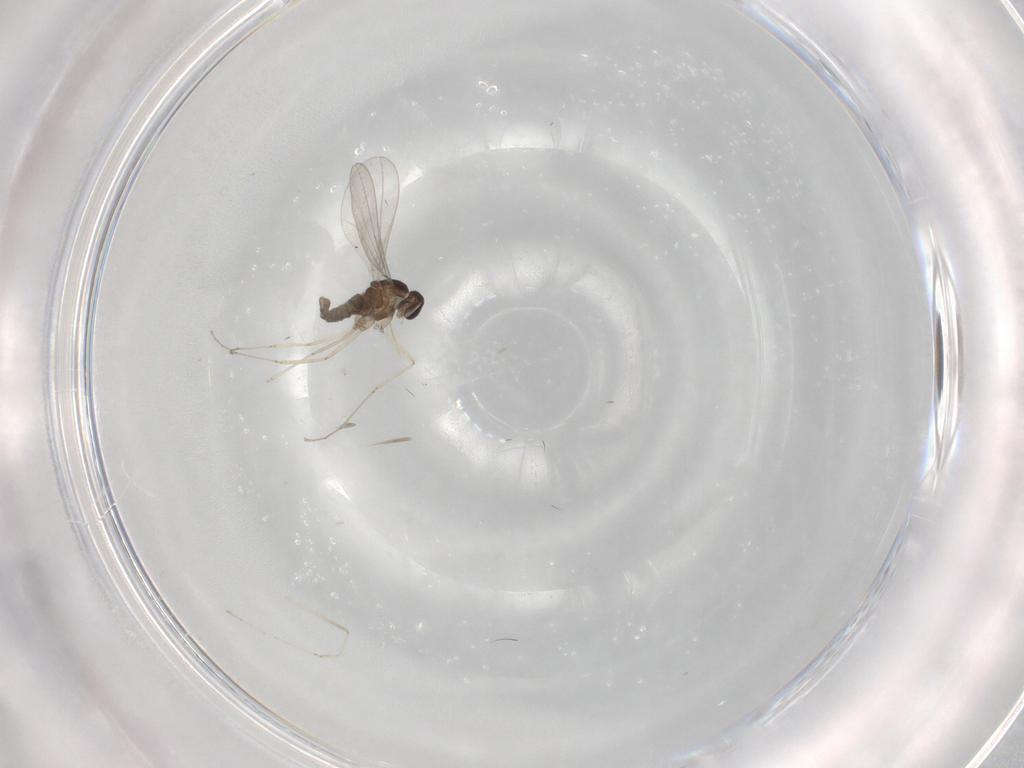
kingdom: Animalia
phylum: Arthropoda
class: Insecta
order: Diptera
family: Cecidomyiidae
